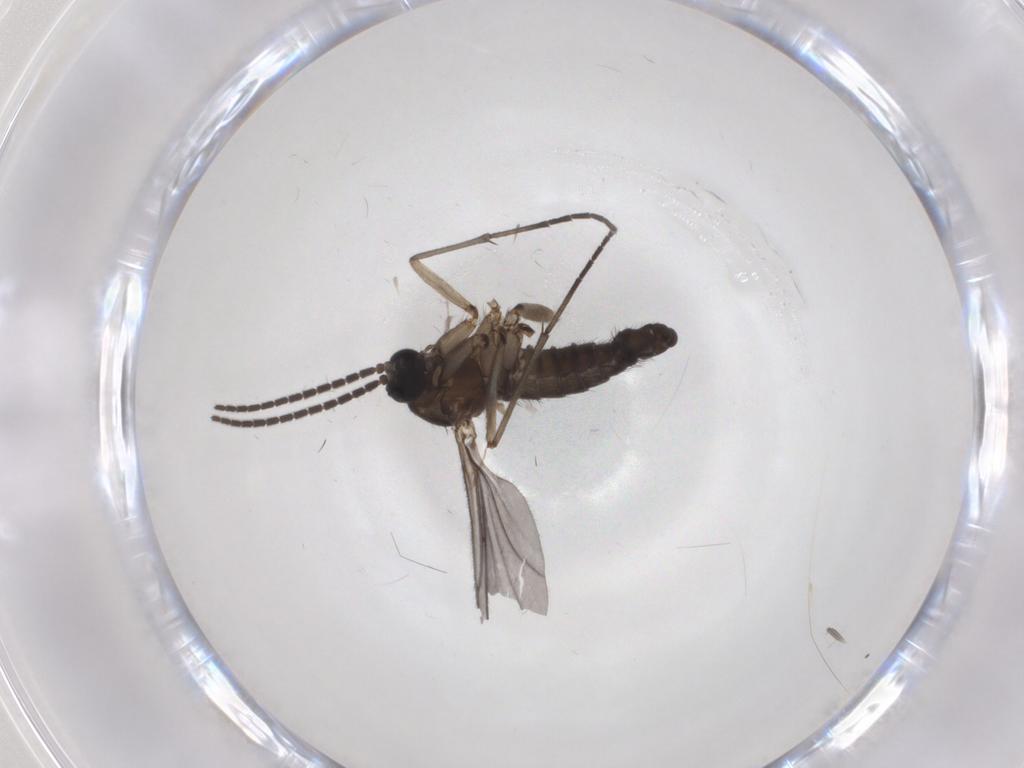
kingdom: Animalia
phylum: Arthropoda
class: Insecta
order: Diptera
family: Sciaridae
